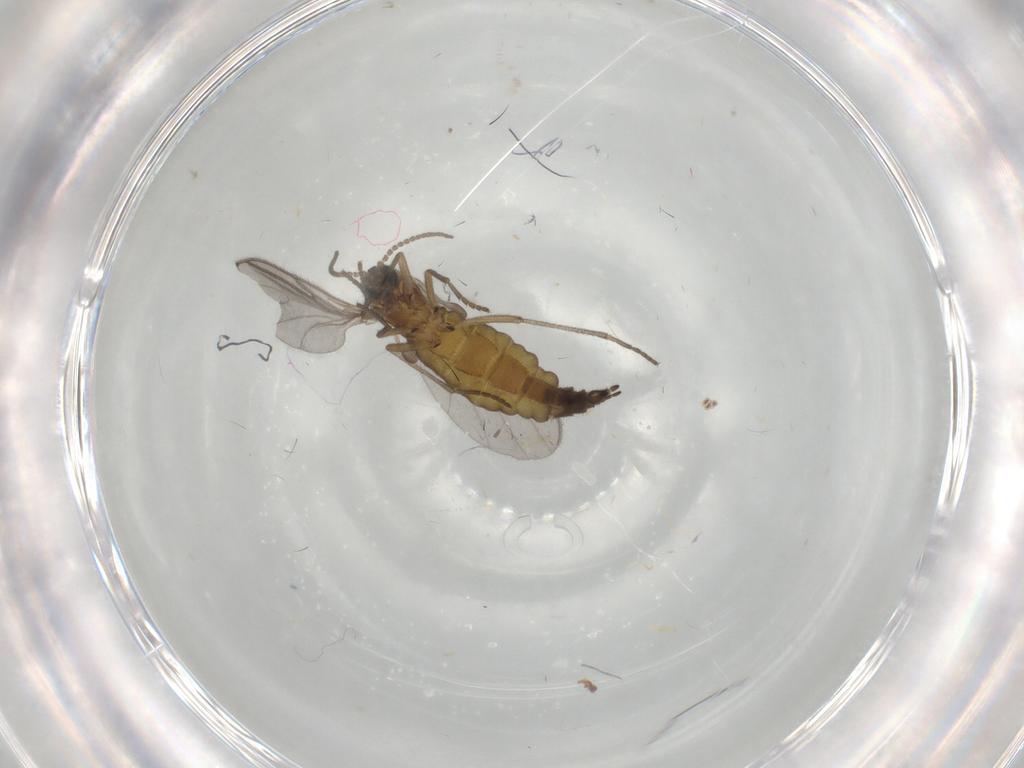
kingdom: Animalia
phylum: Arthropoda
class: Insecta
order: Diptera
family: Sciaridae
